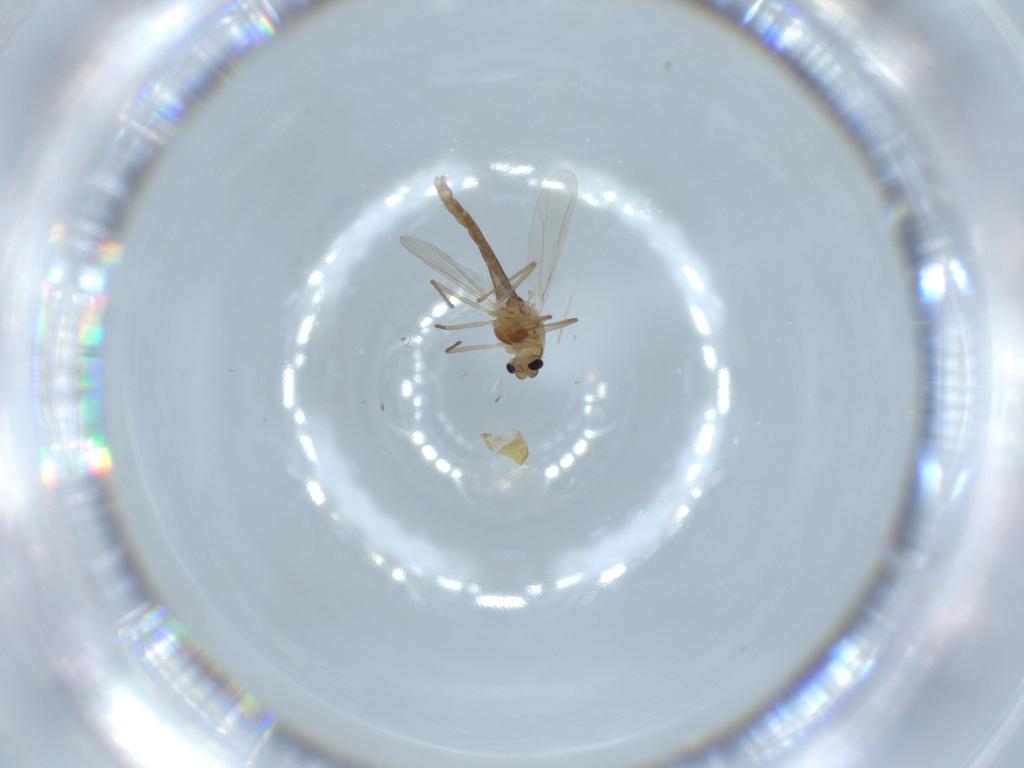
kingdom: Animalia
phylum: Arthropoda
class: Insecta
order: Diptera
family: Chironomidae
